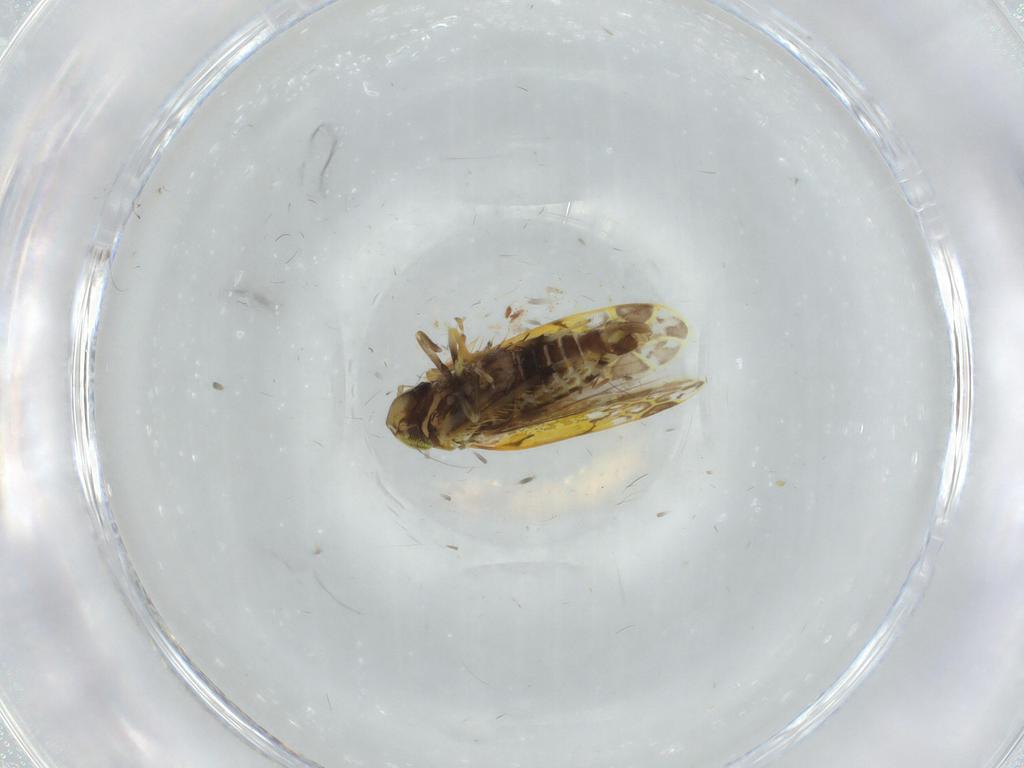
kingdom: Animalia
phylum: Arthropoda
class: Insecta
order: Hemiptera
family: Cicadellidae
